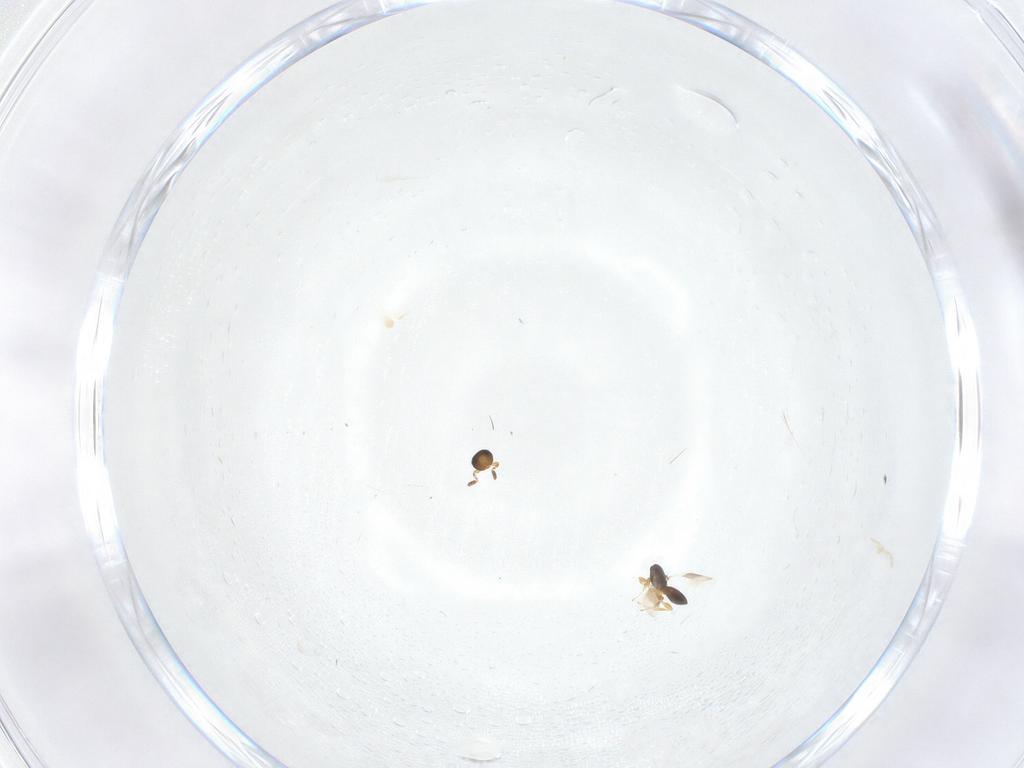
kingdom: Animalia
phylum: Arthropoda
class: Insecta
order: Hymenoptera
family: Platygastridae
